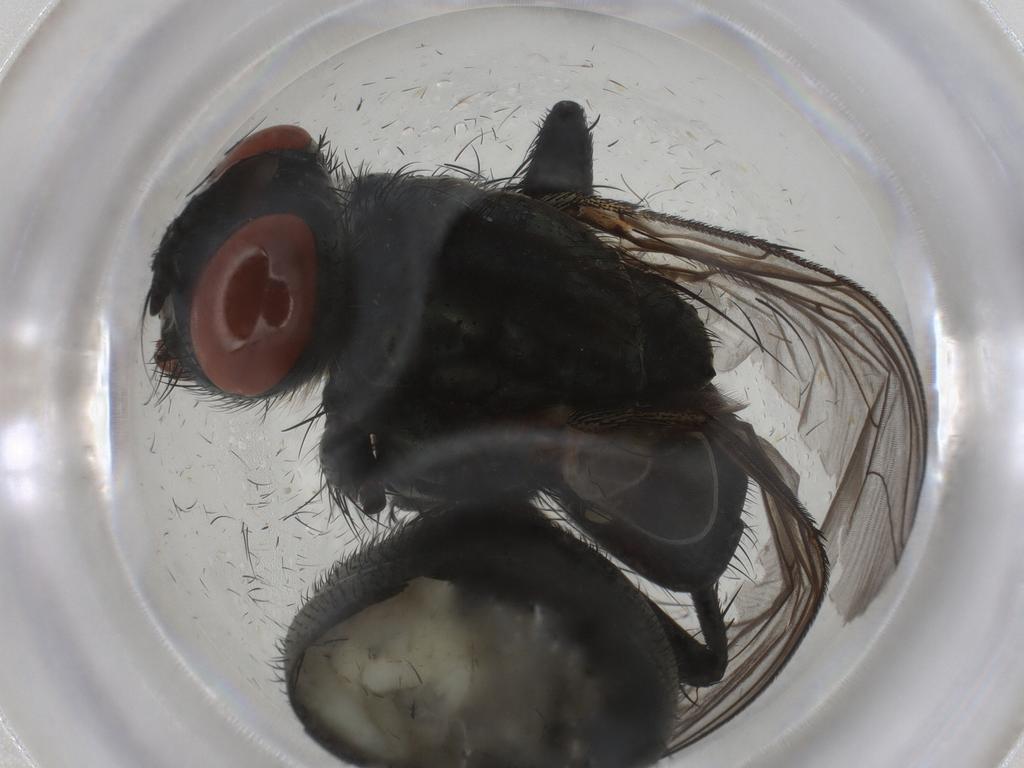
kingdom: Animalia
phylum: Arthropoda
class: Insecta
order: Diptera
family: Sarcophagidae
